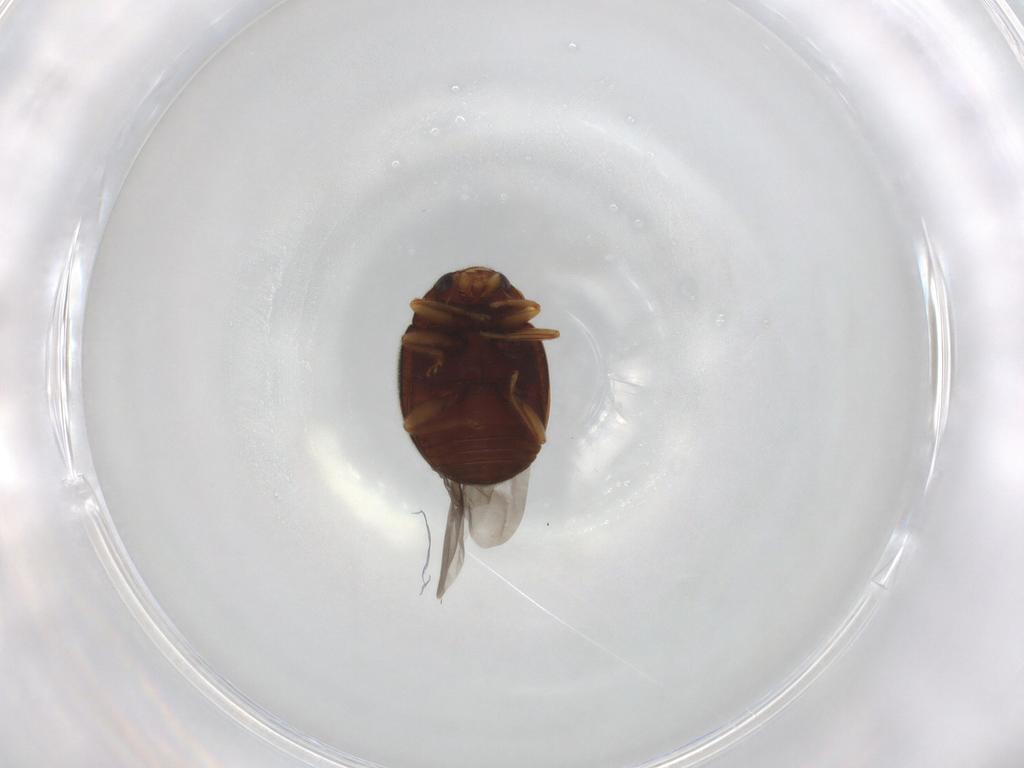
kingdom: Animalia
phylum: Arthropoda
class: Insecta
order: Coleoptera
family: Coccinellidae
